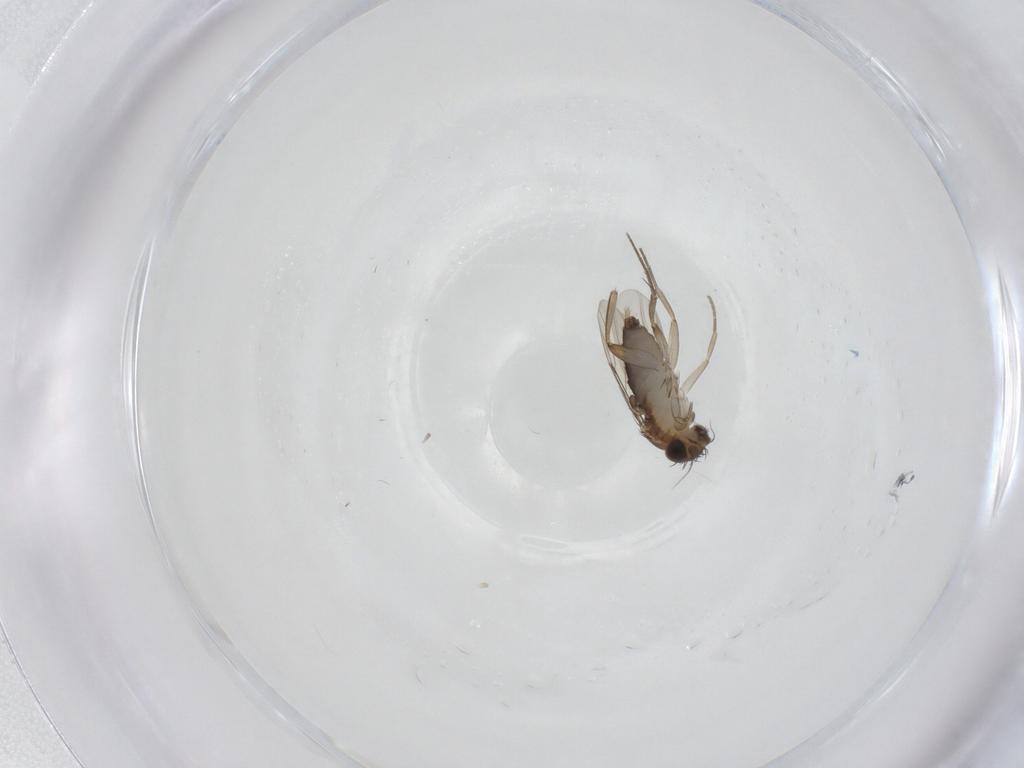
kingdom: Animalia
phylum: Arthropoda
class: Insecta
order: Diptera
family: Phoridae
